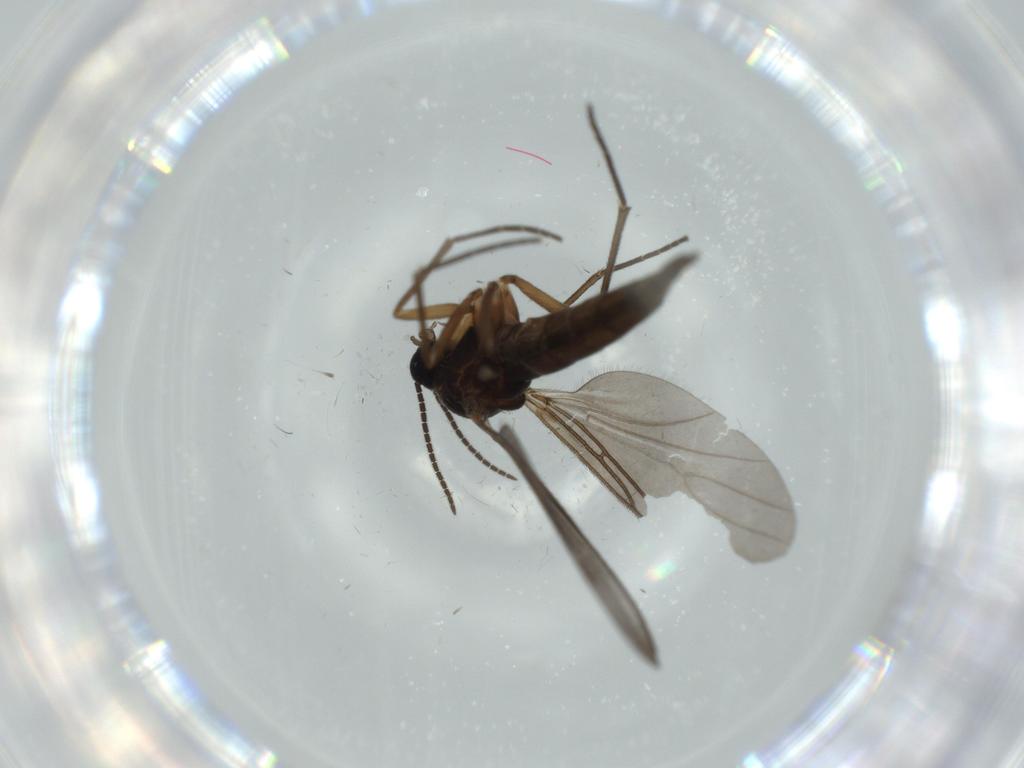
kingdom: Animalia
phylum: Arthropoda
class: Insecta
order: Diptera
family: Sciaridae
